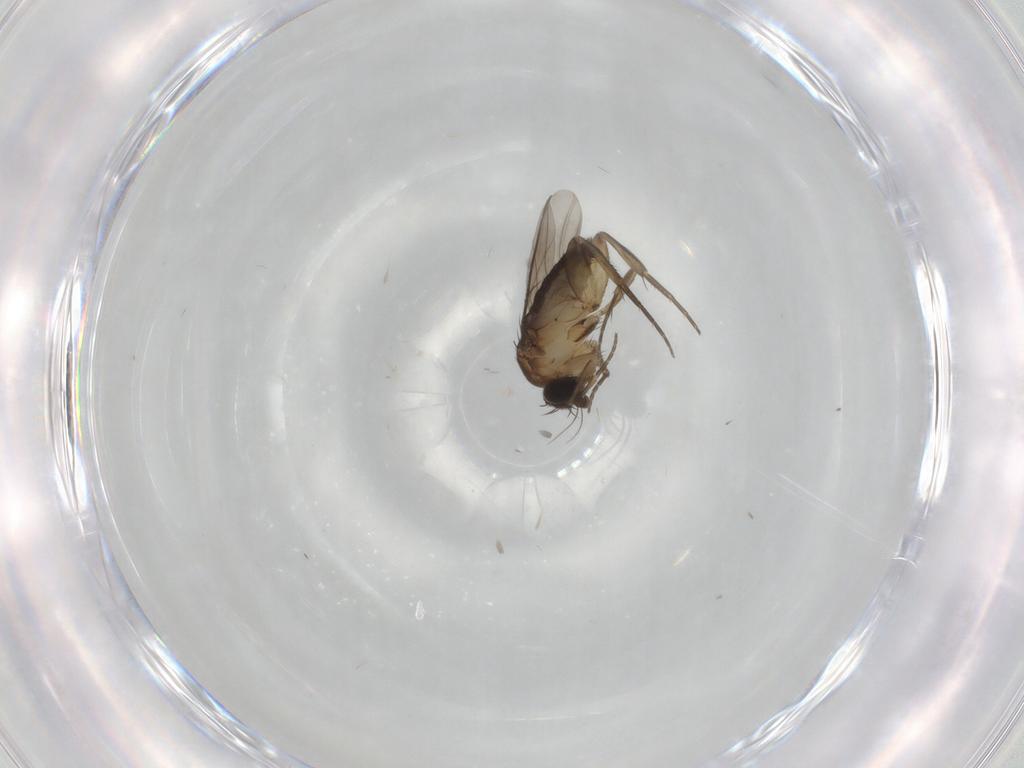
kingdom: Animalia
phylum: Arthropoda
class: Insecta
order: Diptera
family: Phoridae
